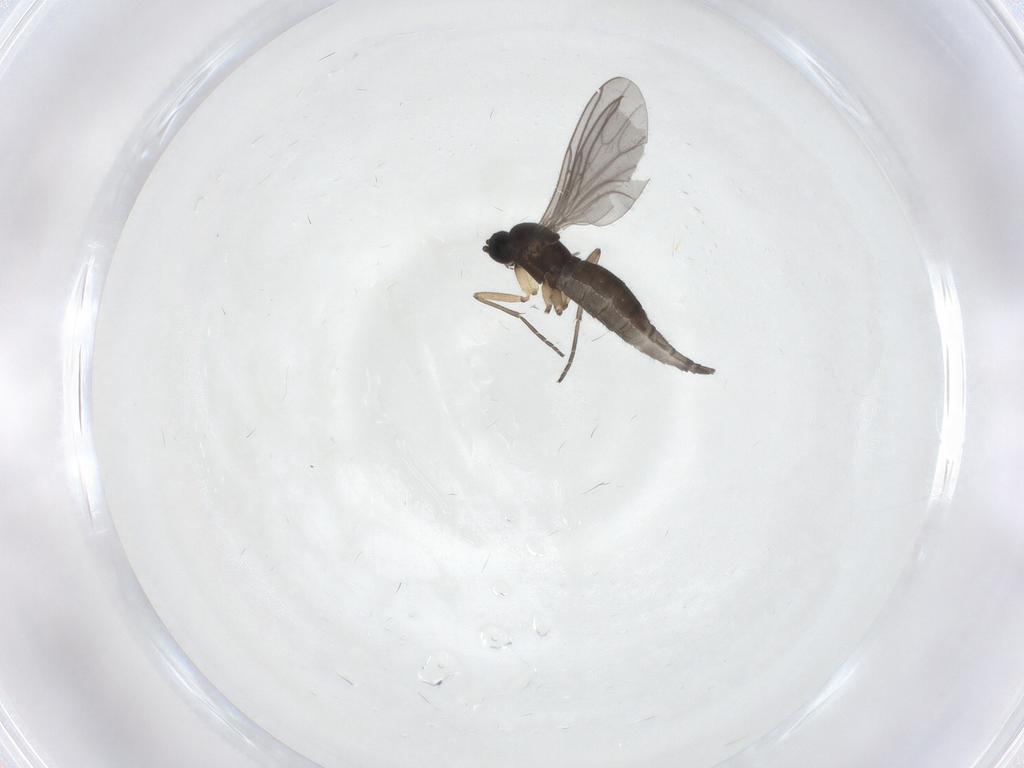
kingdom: Animalia
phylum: Arthropoda
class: Insecta
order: Diptera
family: Sciaridae
